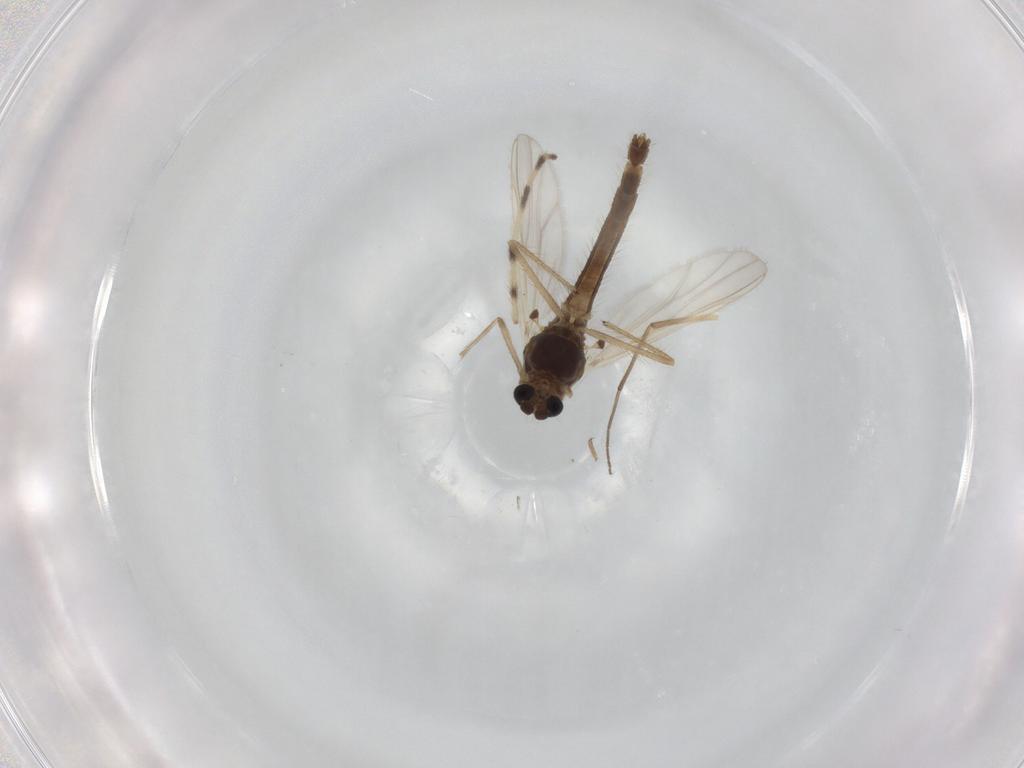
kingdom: Animalia
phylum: Arthropoda
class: Insecta
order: Diptera
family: Chironomidae
